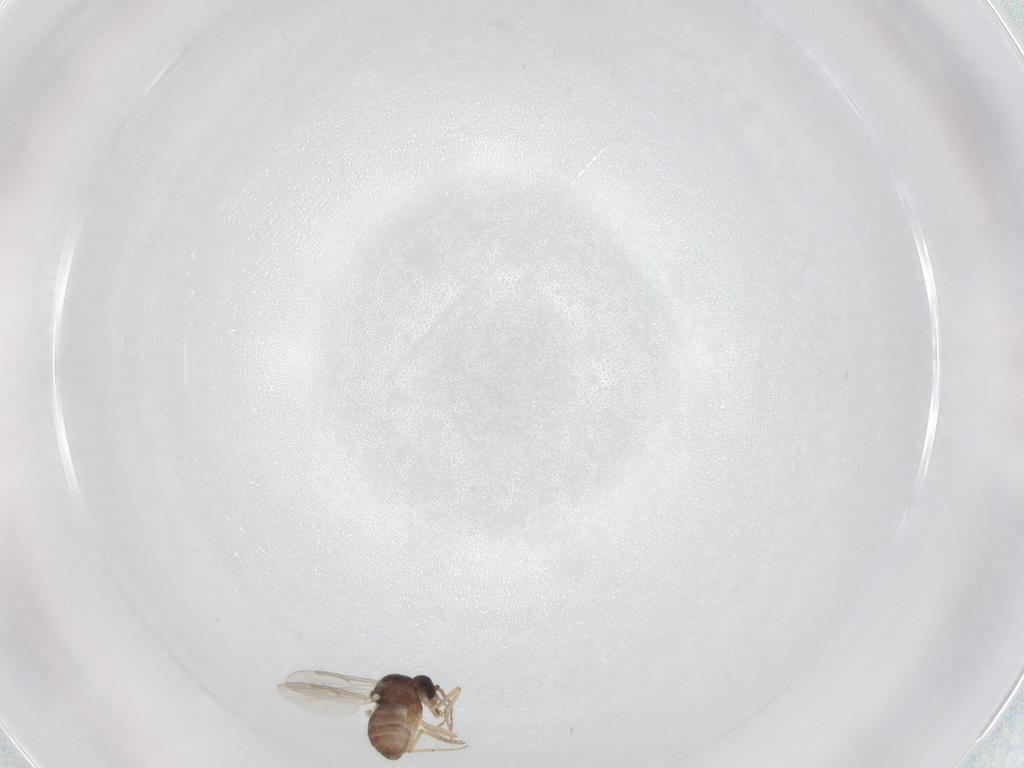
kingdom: Animalia
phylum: Arthropoda
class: Insecta
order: Diptera
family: Ceratopogonidae
